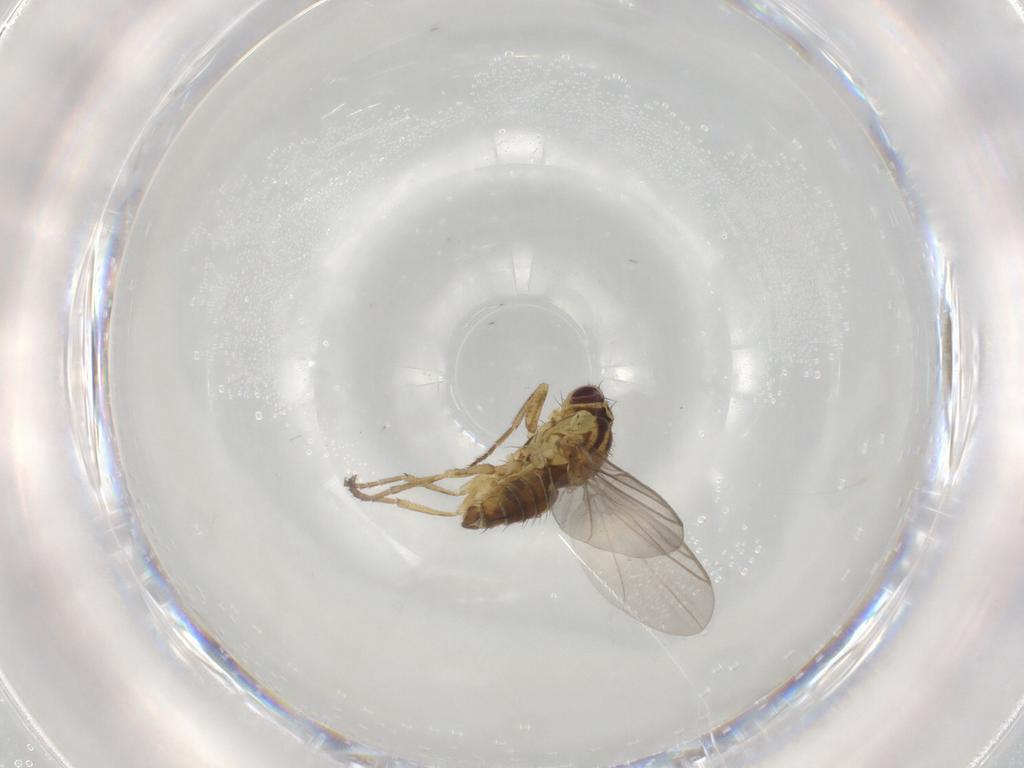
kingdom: Animalia
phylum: Arthropoda
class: Insecta
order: Diptera
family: Agromyzidae
